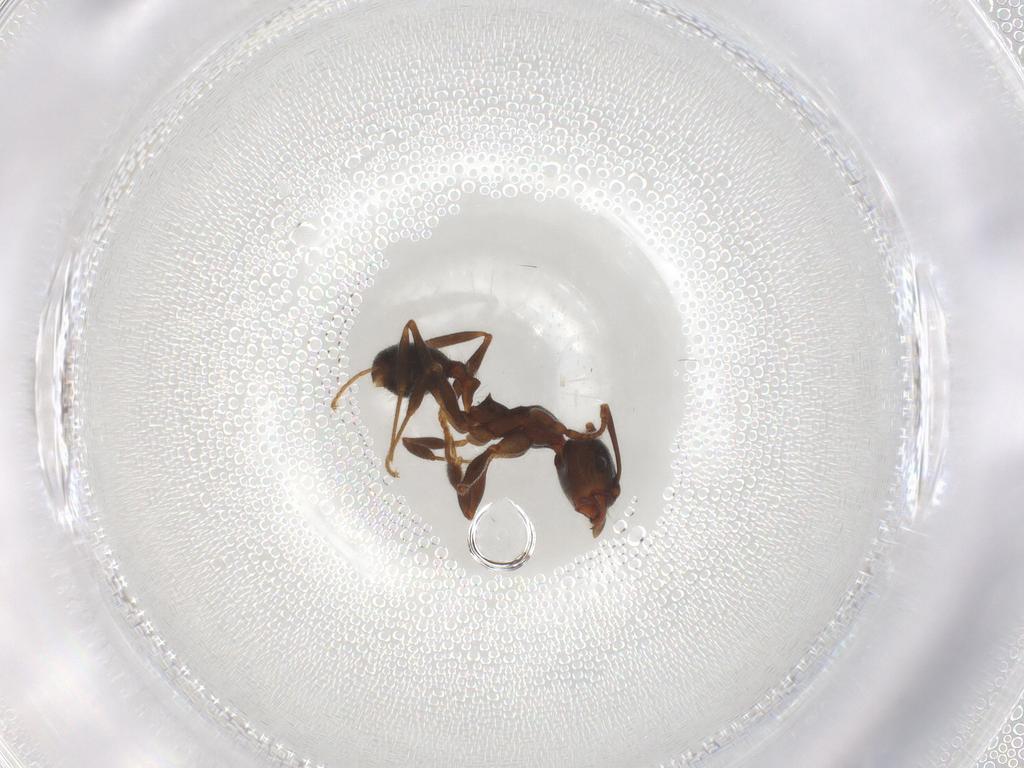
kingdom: Animalia
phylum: Arthropoda
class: Insecta
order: Hymenoptera
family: Formicidae
